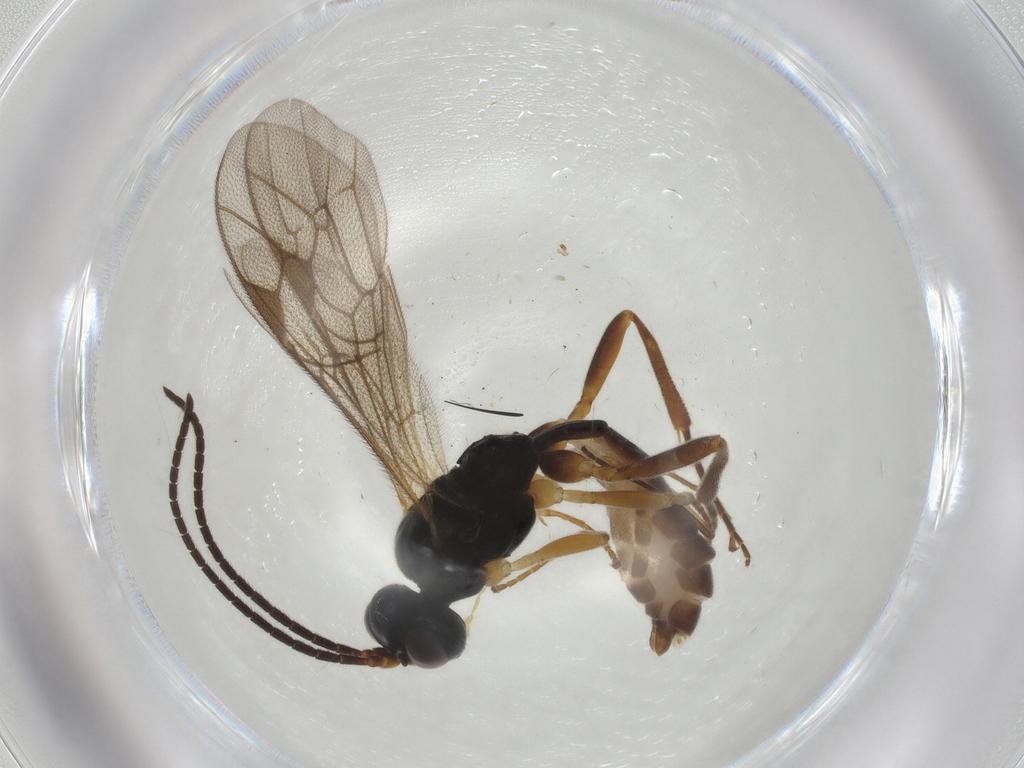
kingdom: Animalia
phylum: Arthropoda
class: Insecta
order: Hymenoptera
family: Ichneumonidae
